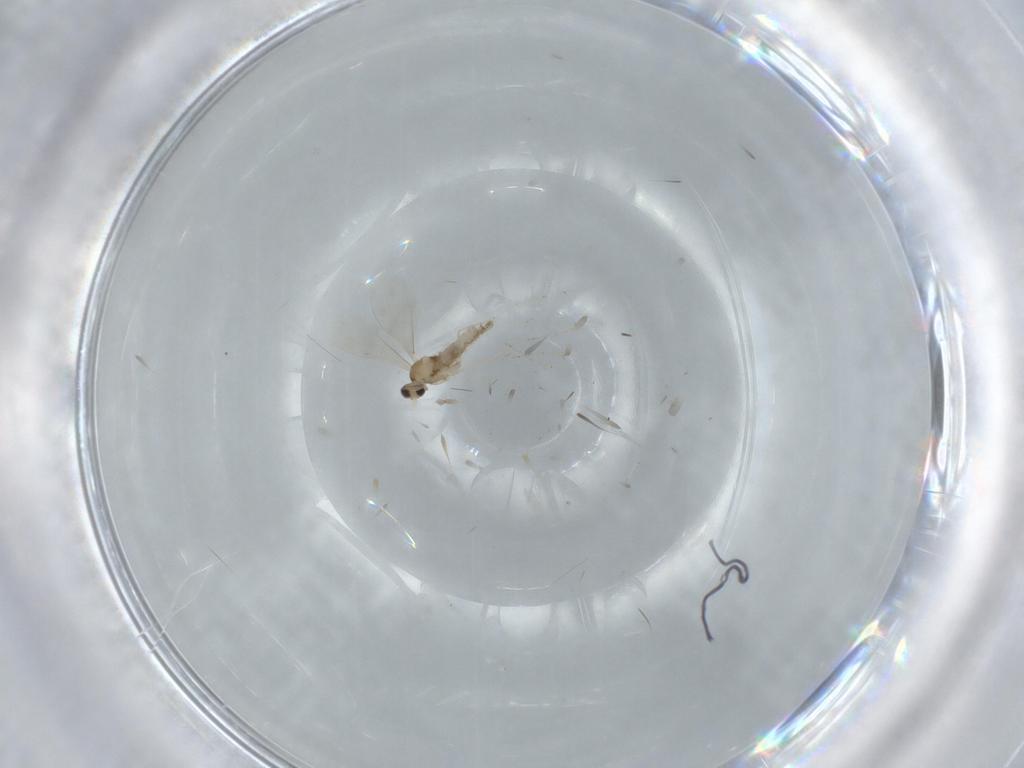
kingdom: Animalia
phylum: Arthropoda
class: Insecta
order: Diptera
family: Cecidomyiidae
